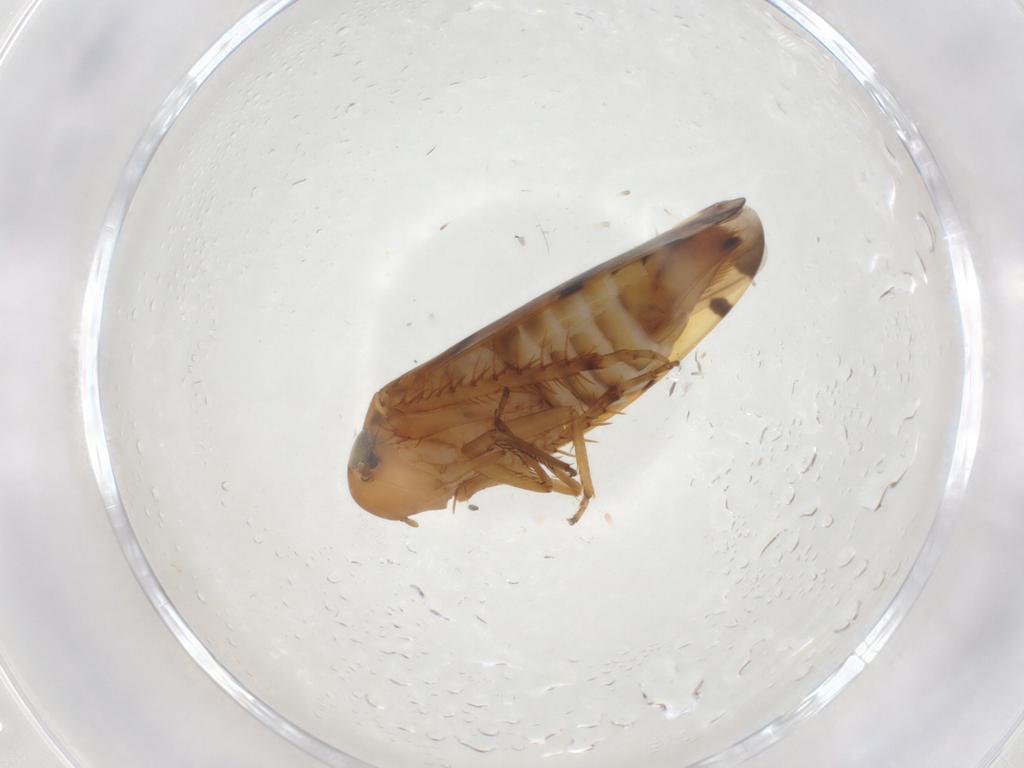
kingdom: Animalia
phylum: Arthropoda
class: Insecta
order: Hemiptera
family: Cicadellidae
